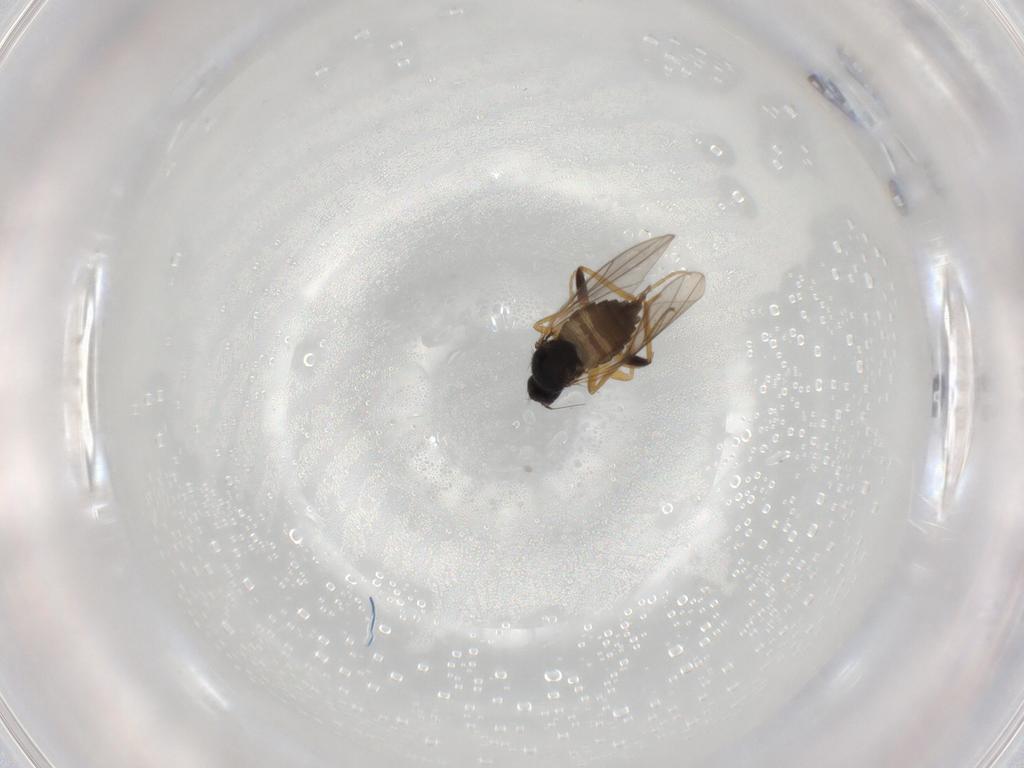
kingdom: Animalia
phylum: Arthropoda
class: Insecta
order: Diptera
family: Hybotidae
